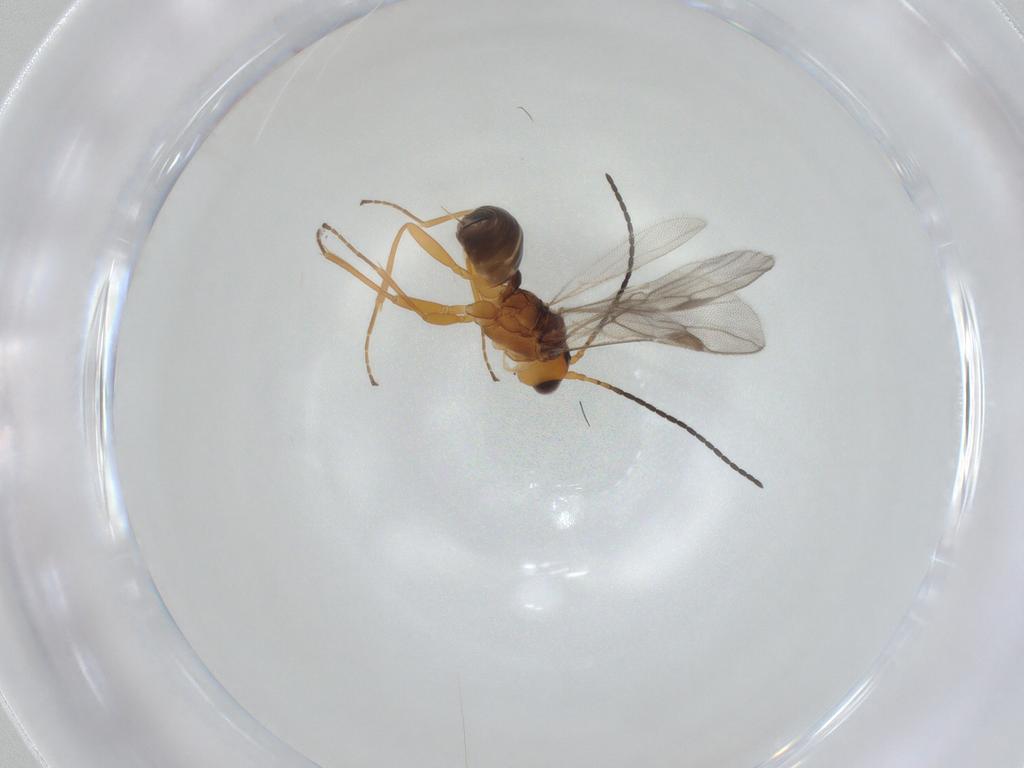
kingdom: Animalia
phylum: Arthropoda
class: Insecta
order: Hymenoptera
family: Braconidae
